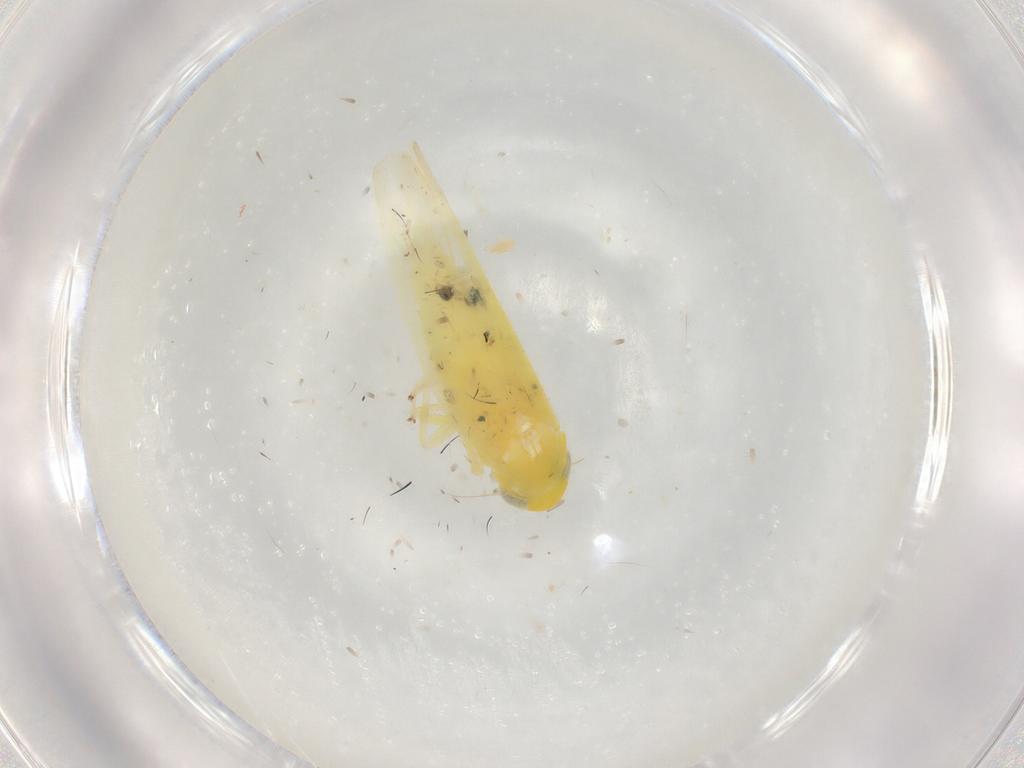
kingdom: Animalia
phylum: Arthropoda
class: Insecta
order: Hemiptera
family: Cicadellidae
